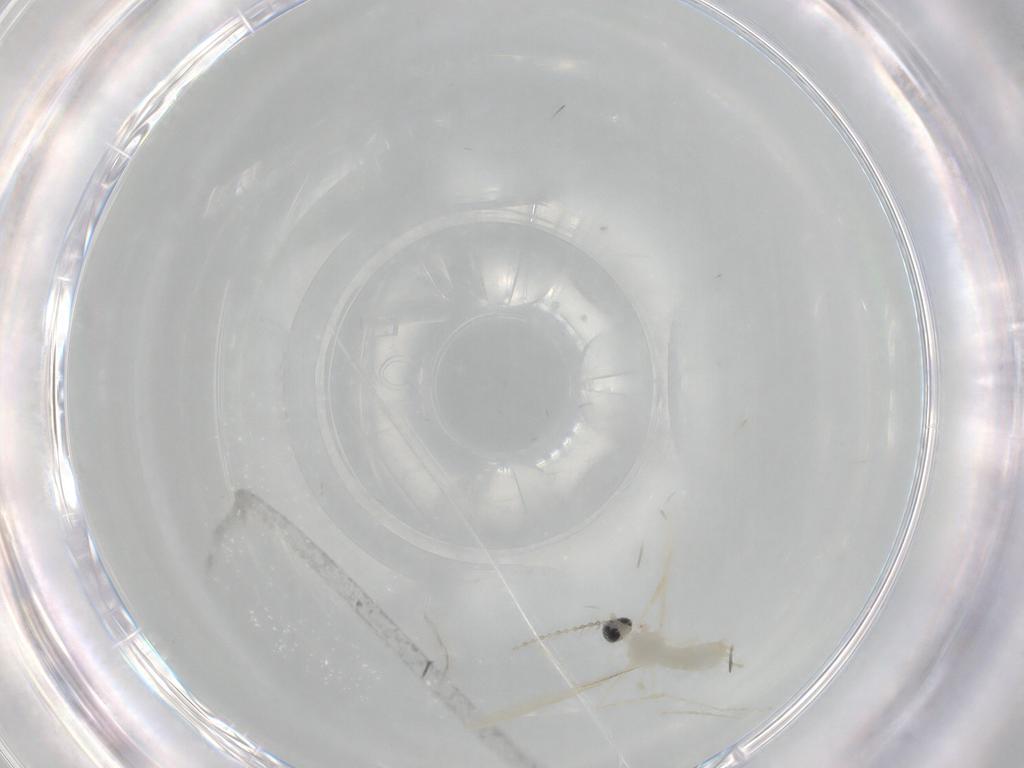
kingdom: Animalia
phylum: Arthropoda
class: Insecta
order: Diptera
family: Cecidomyiidae
